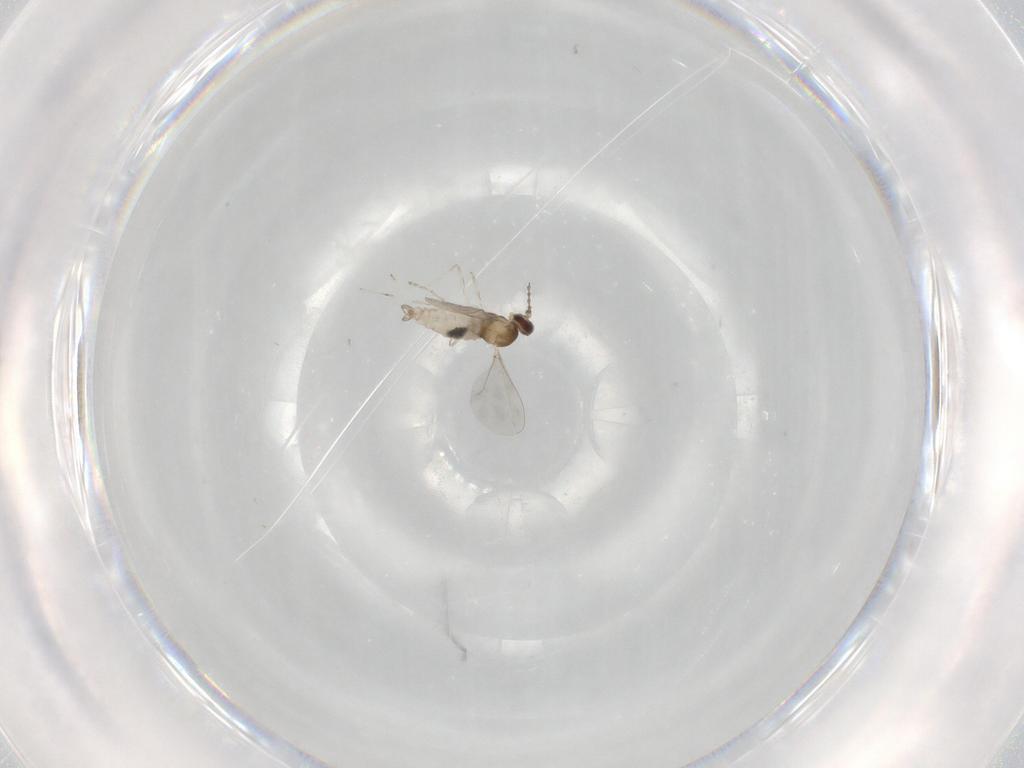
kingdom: Animalia
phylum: Arthropoda
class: Insecta
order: Diptera
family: Cecidomyiidae
